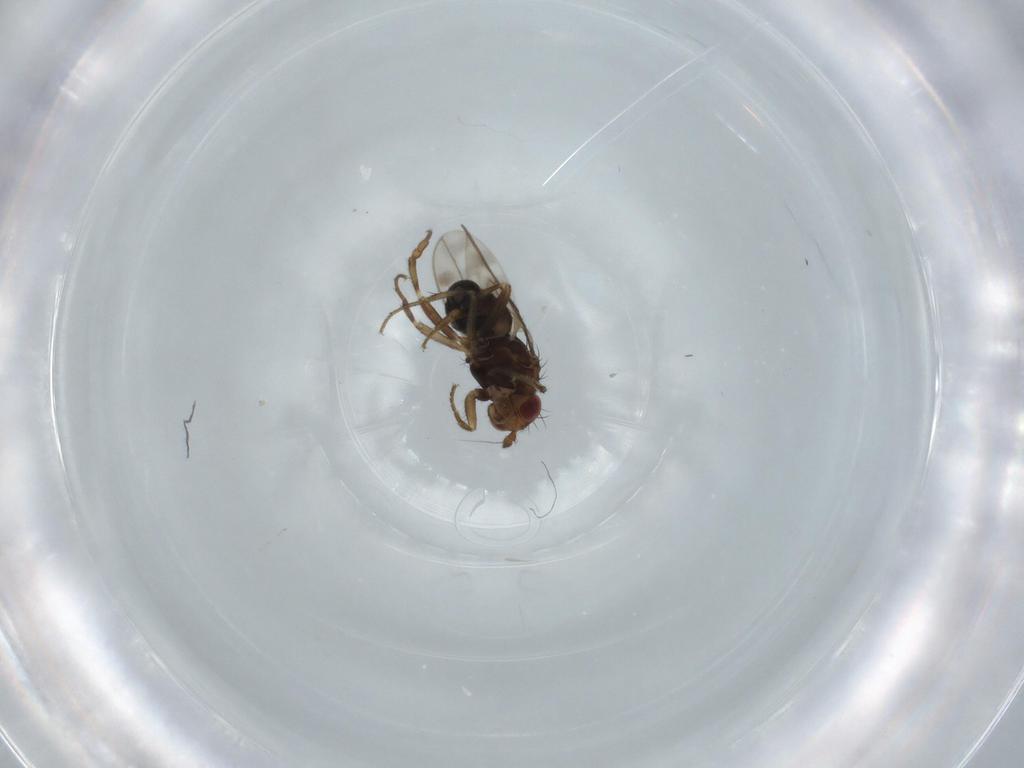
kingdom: Animalia
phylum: Arthropoda
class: Insecta
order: Diptera
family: Sphaeroceridae
